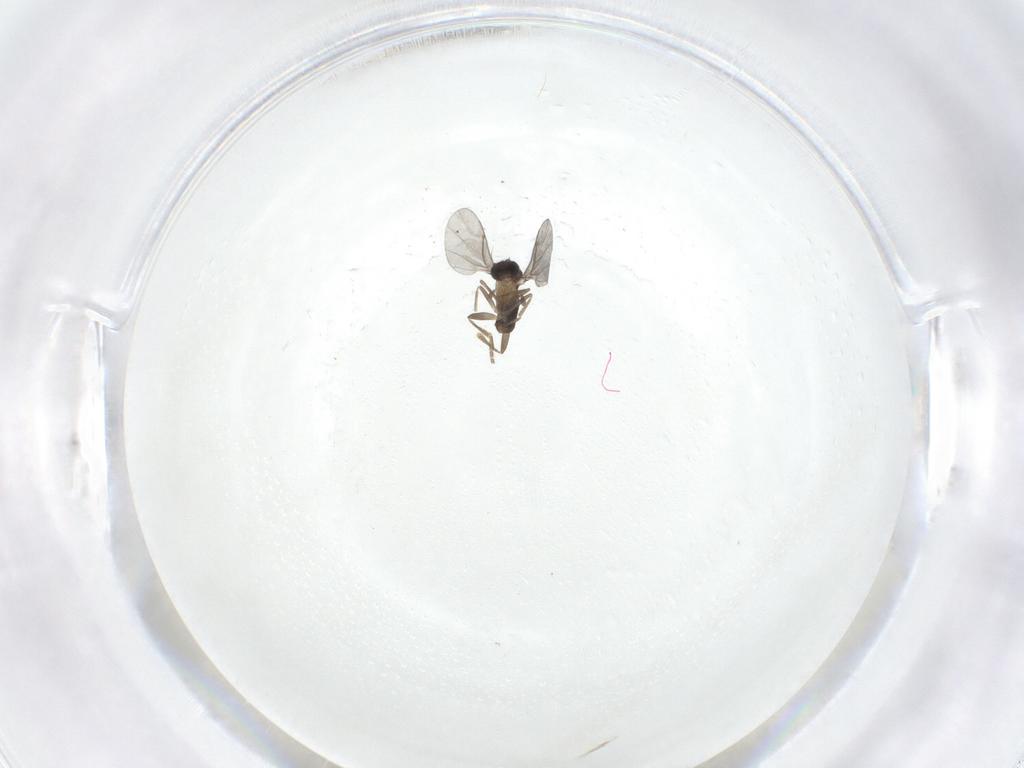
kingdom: Animalia
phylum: Arthropoda
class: Insecta
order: Diptera
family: Phoridae
